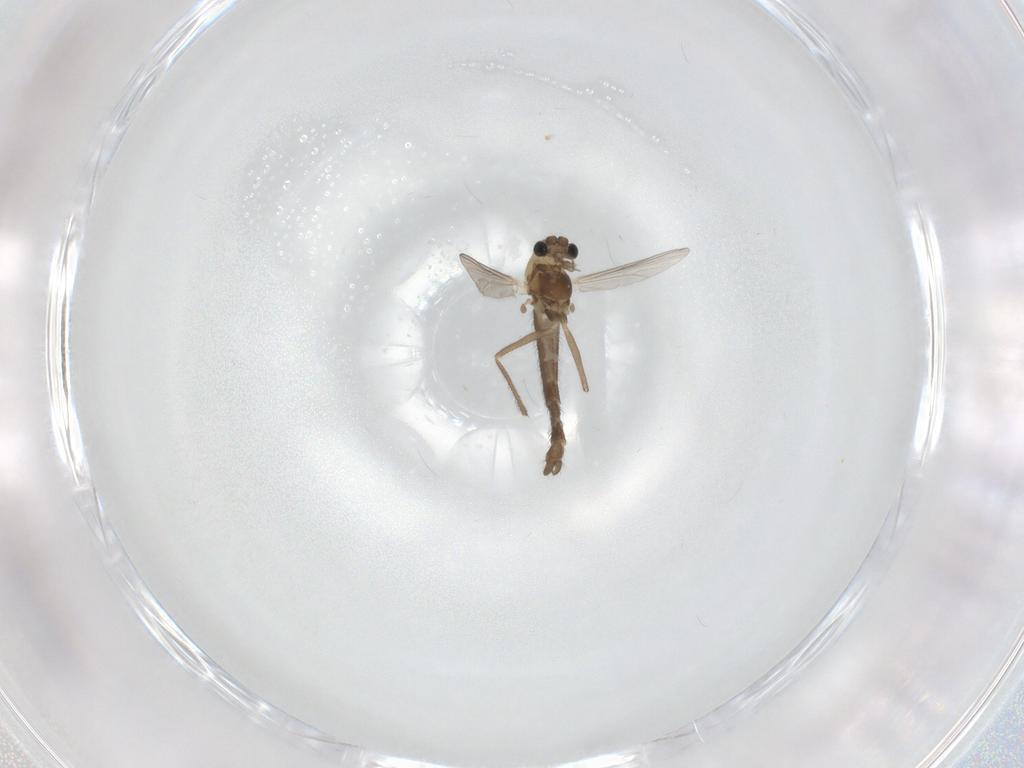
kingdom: Animalia
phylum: Arthropoda
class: Insecta
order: Diptera
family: Chironomidae
